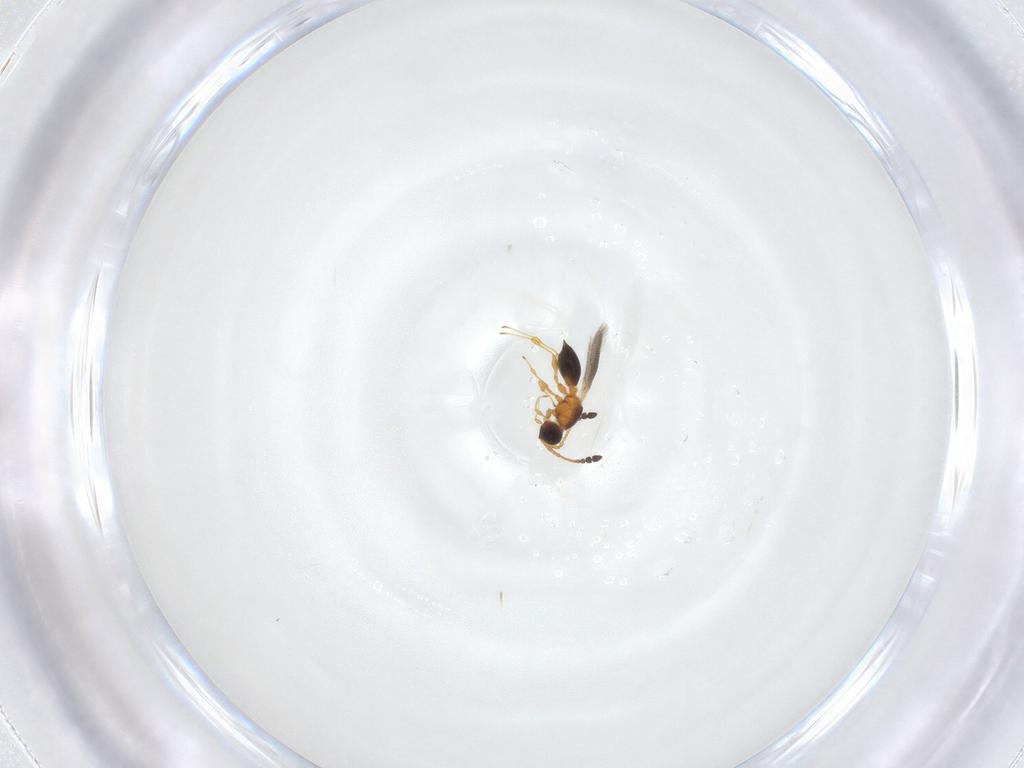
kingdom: Animalia
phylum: Arthropoda
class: Insecta
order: Hymenoptera
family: Diapriidae
